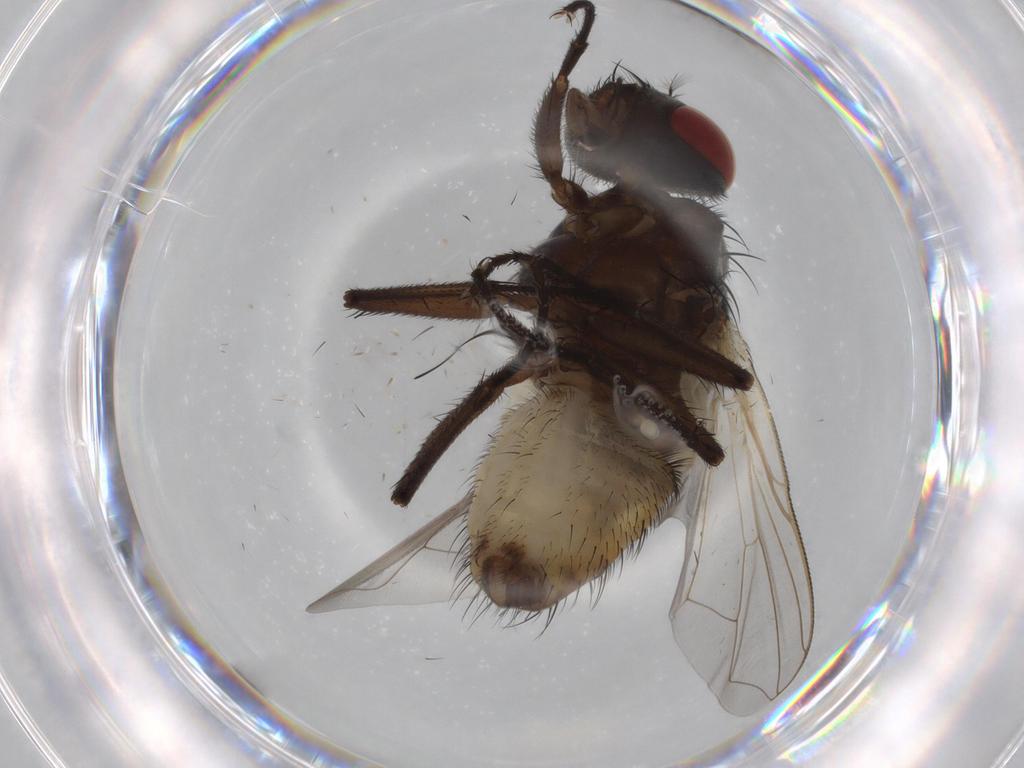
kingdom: Animalia
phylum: Arthropoda
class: Insecta
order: Diptera
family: Muscidae
